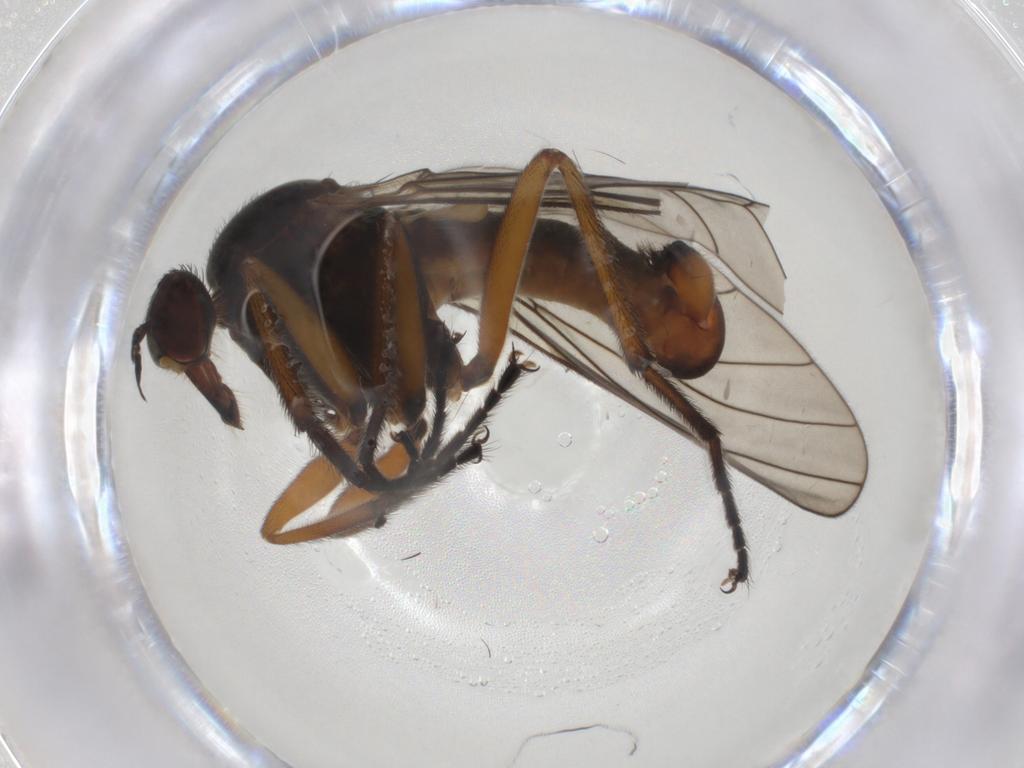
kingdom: Animalia
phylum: Arthropoda
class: Insecta
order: Diptera
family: Empididae
